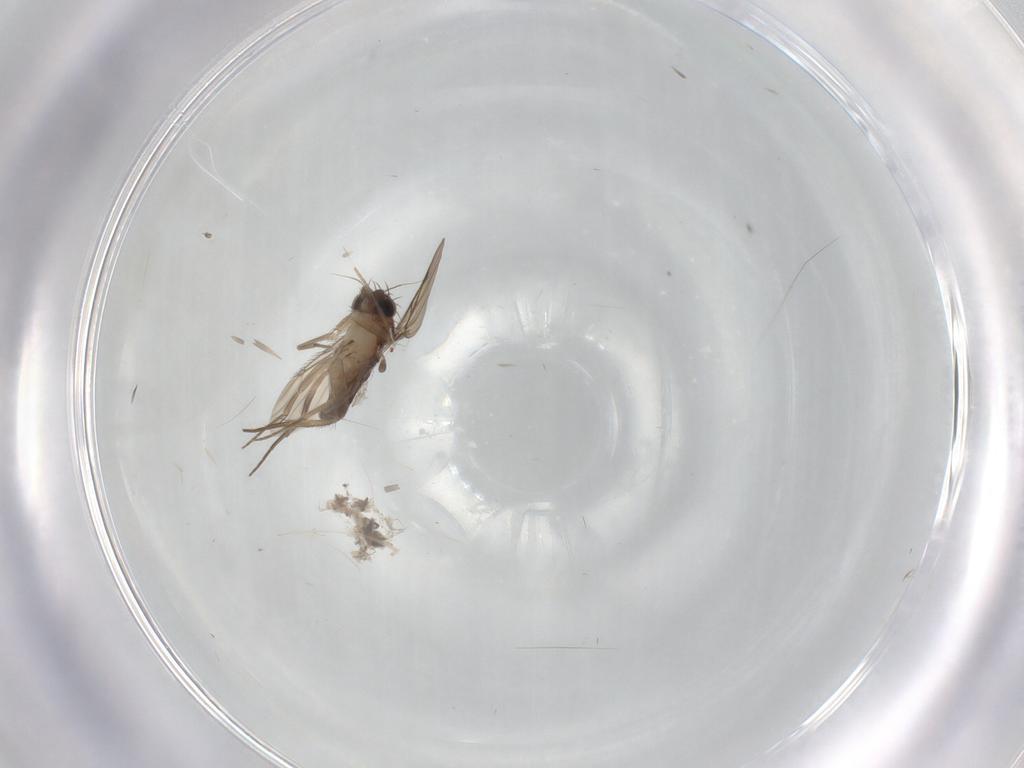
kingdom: Animalia
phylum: Arthropoda
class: Insecta
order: Diptera
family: Phoridae
